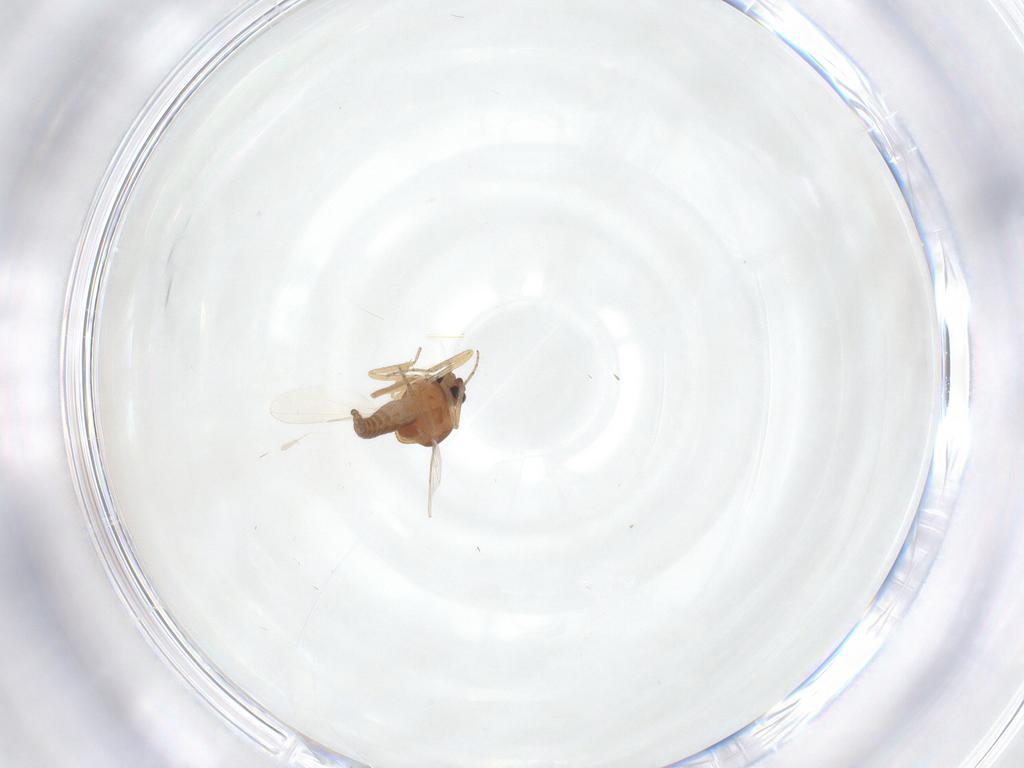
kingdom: Animalia
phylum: Arthropoda
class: Insecta
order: Diptera
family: Ceratopogonidae
